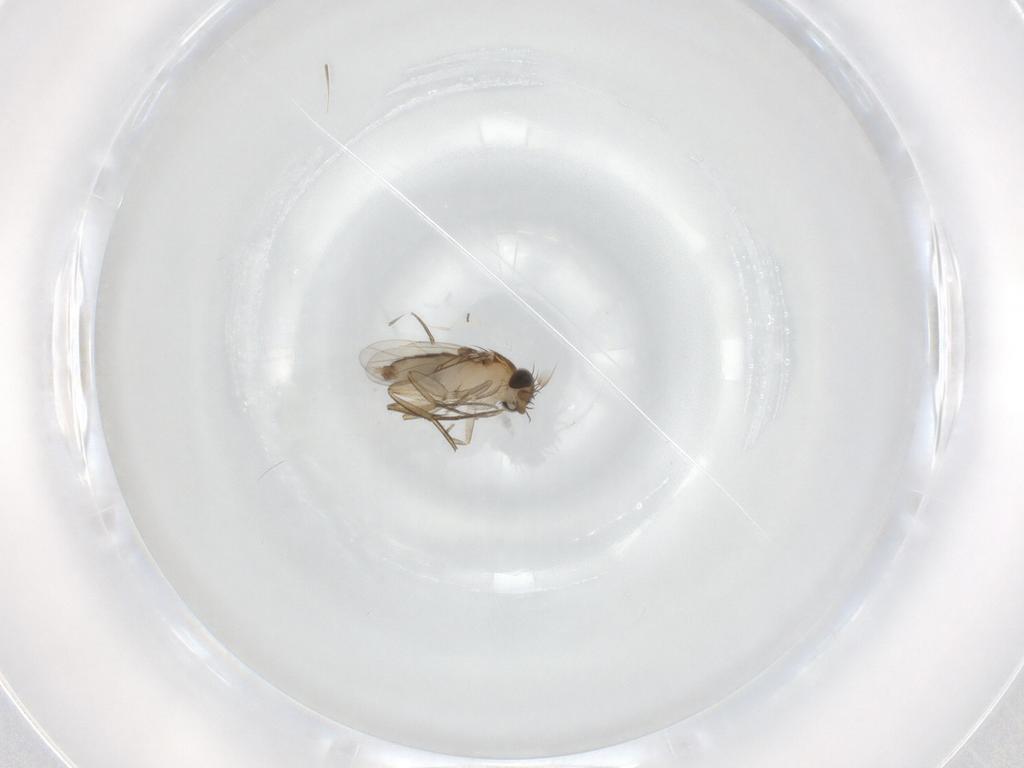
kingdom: Animalia
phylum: Arthropoda
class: Insecta
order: Diptera
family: Phoridae
